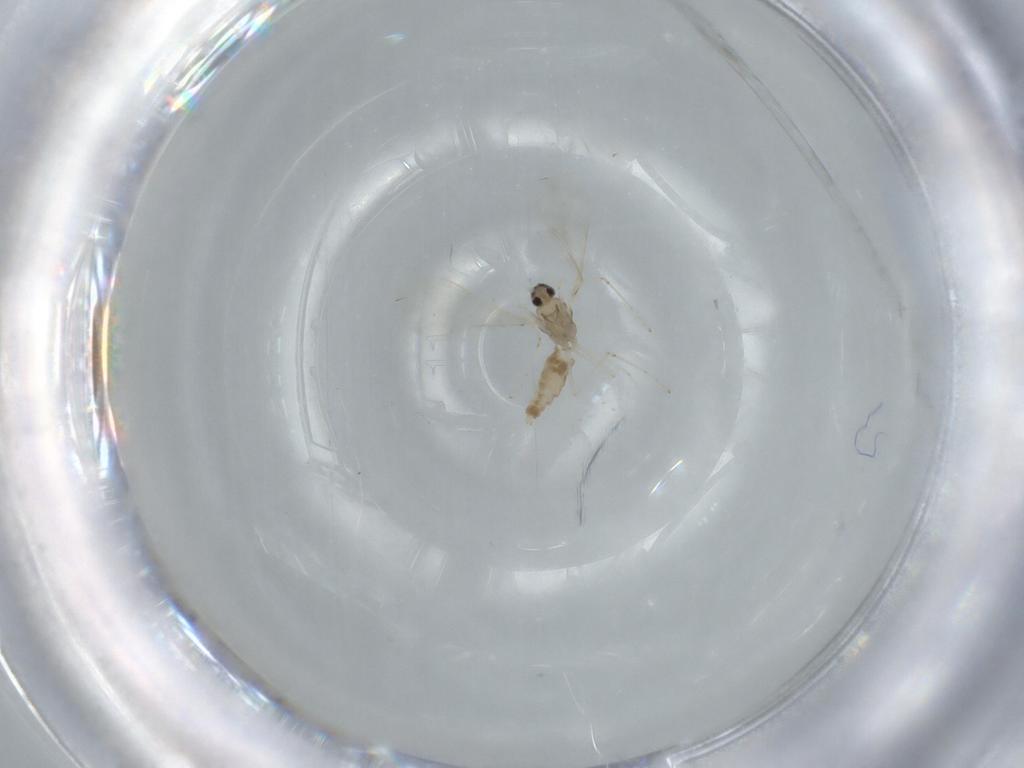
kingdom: Animalia
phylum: Arthropoda
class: Insecta
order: Diptera
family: Cecidomyiidae
